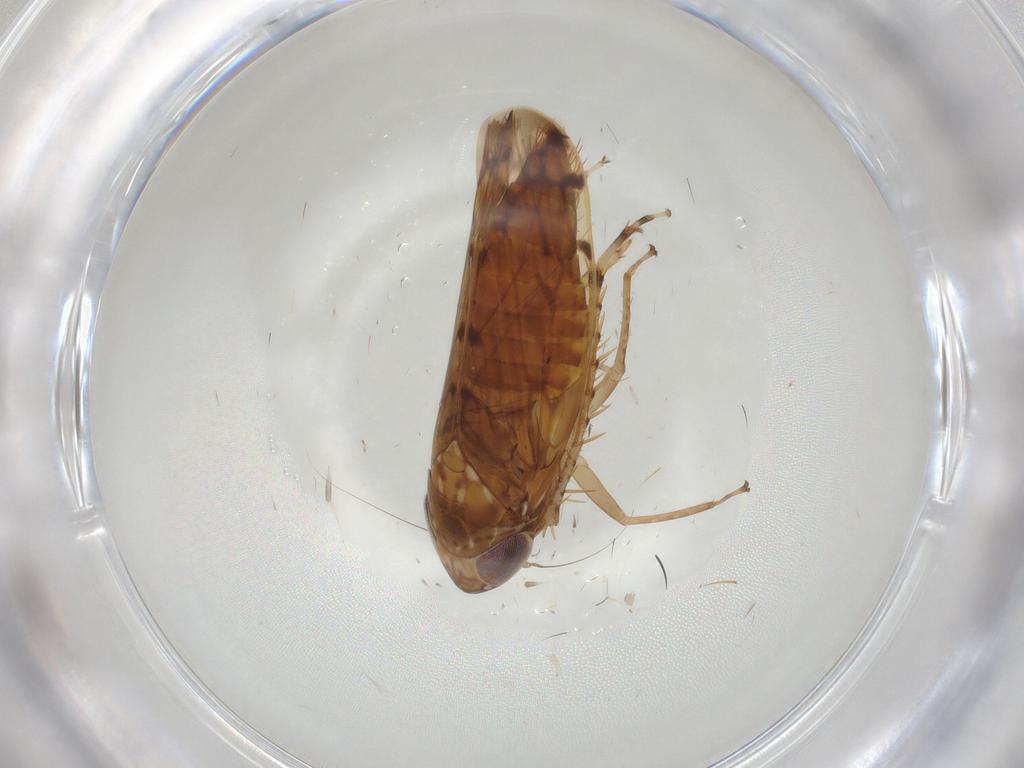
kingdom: Animalia
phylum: Arthropoda
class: Insecta
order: Hemiptera
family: Cicadellidae
